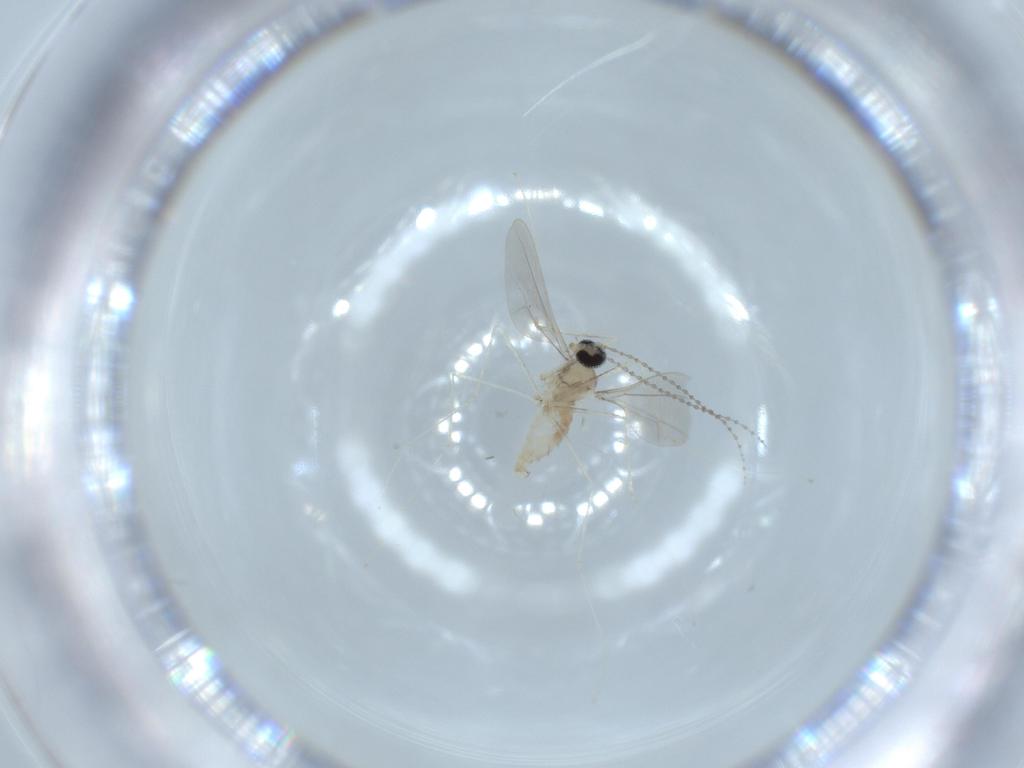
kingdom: Animalia
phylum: Arthropoda
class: Insecta
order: Diptera
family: Cecidomyiidae
